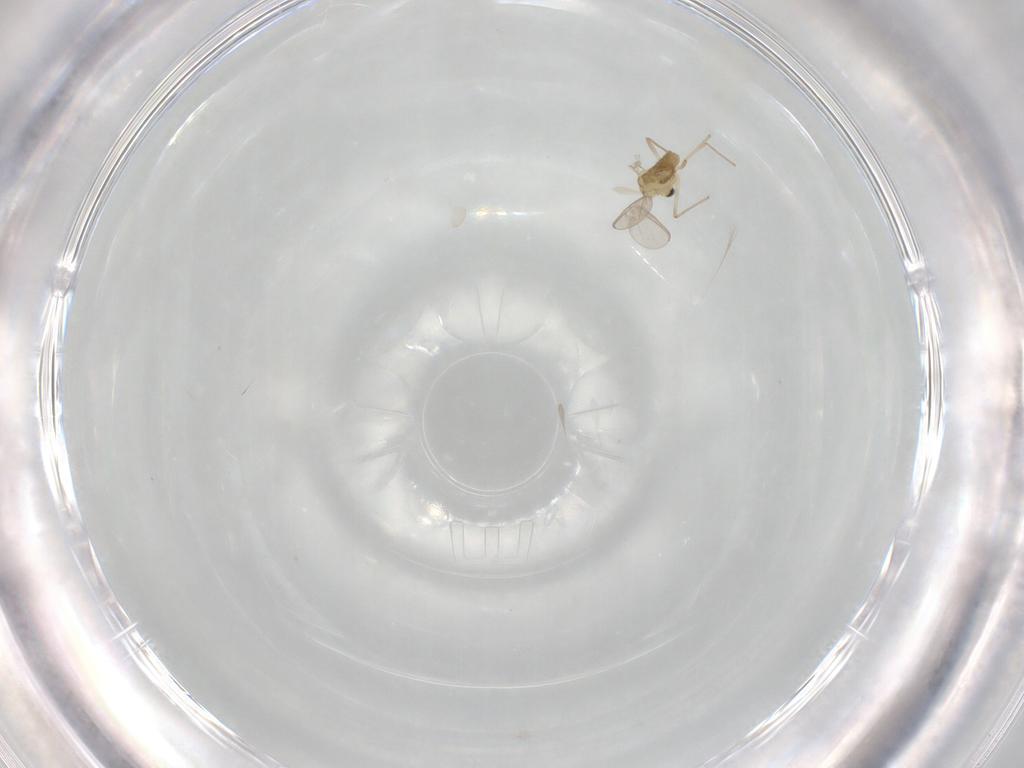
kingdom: Animalia
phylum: Arthropoda
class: Insecta
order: Diptera
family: Chironomidae
